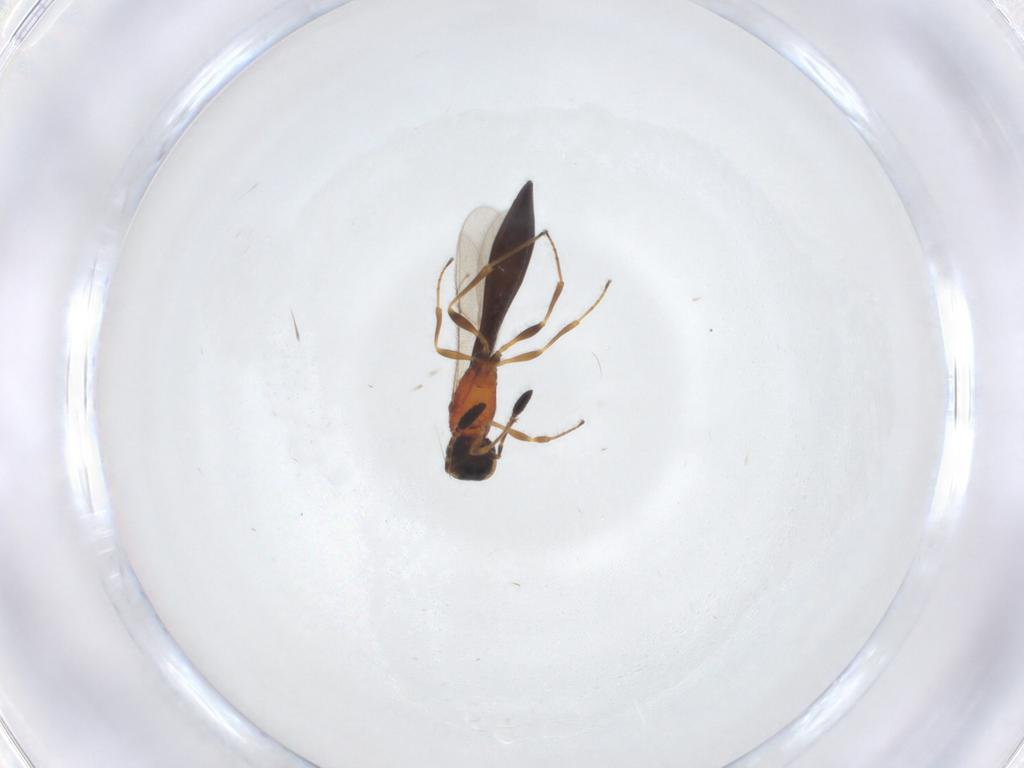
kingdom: Animalia
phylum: Arthropoda
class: Insecta
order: Hymenoptera
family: Scelionidae
